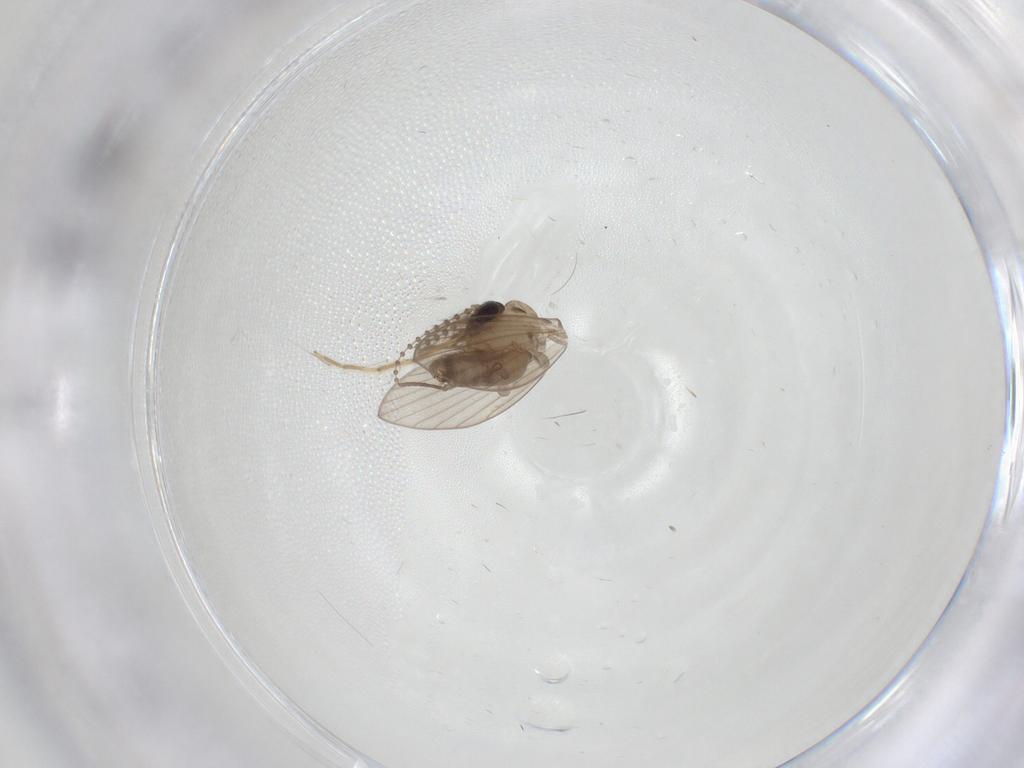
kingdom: Animalia
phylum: Arthropoda
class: Insecta
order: Diptera
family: Psychodidae
